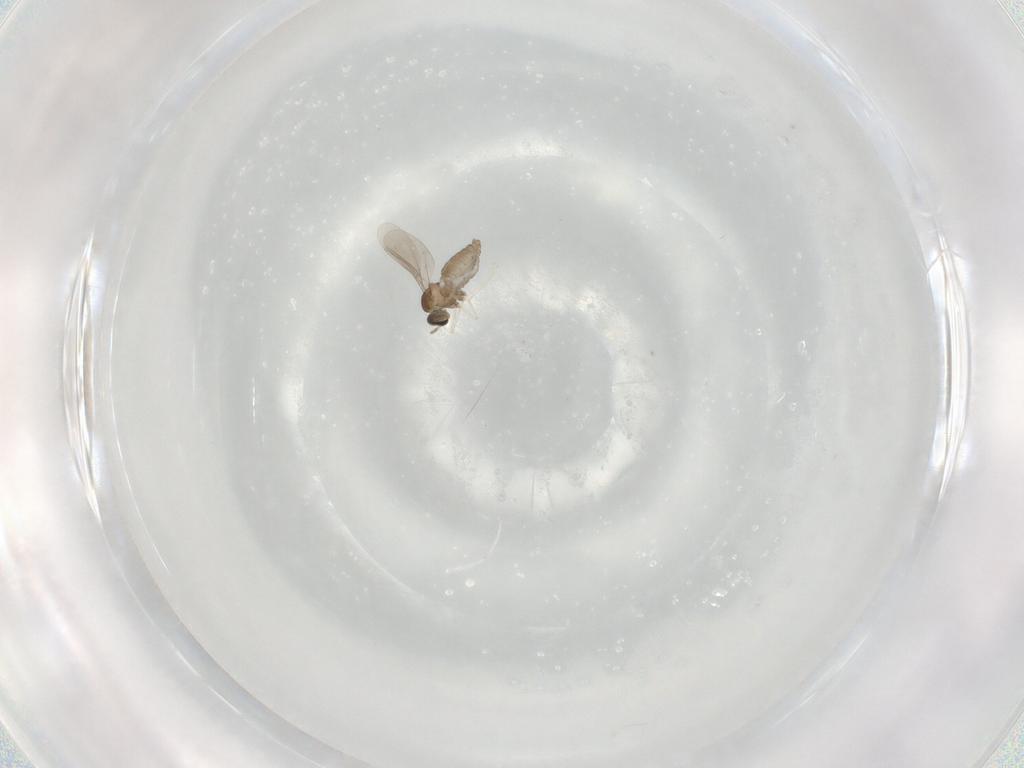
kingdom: Animalia
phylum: Arthropoda
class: Insecta
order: Diptera
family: Cecidomyiidae
